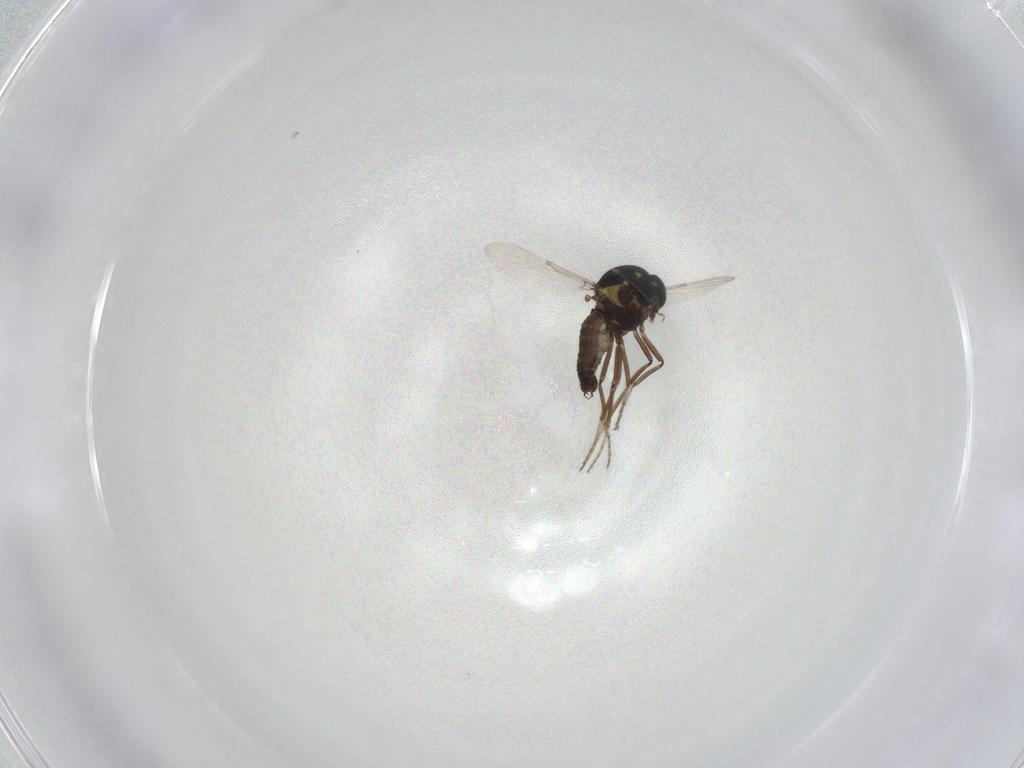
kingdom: Animalia
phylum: Arthropoda
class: Insecta
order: Diptera
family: Ceratopogonidae
